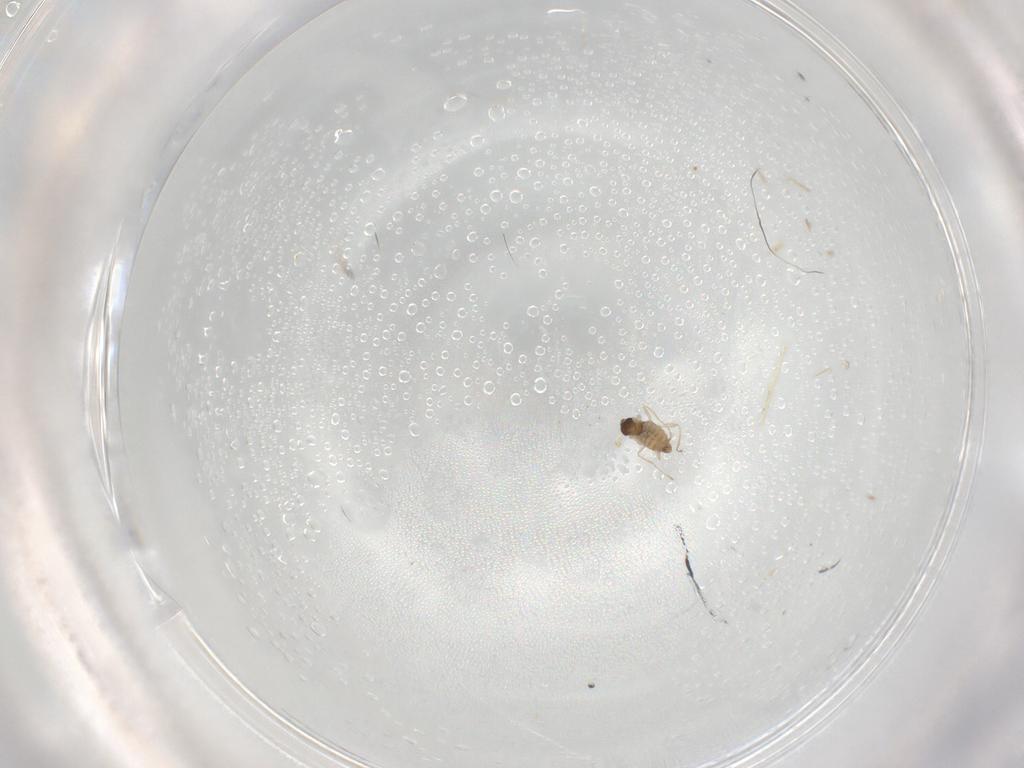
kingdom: Animalia
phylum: Arthropoda
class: Insecta
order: Diptera
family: Cecidomyiidae
